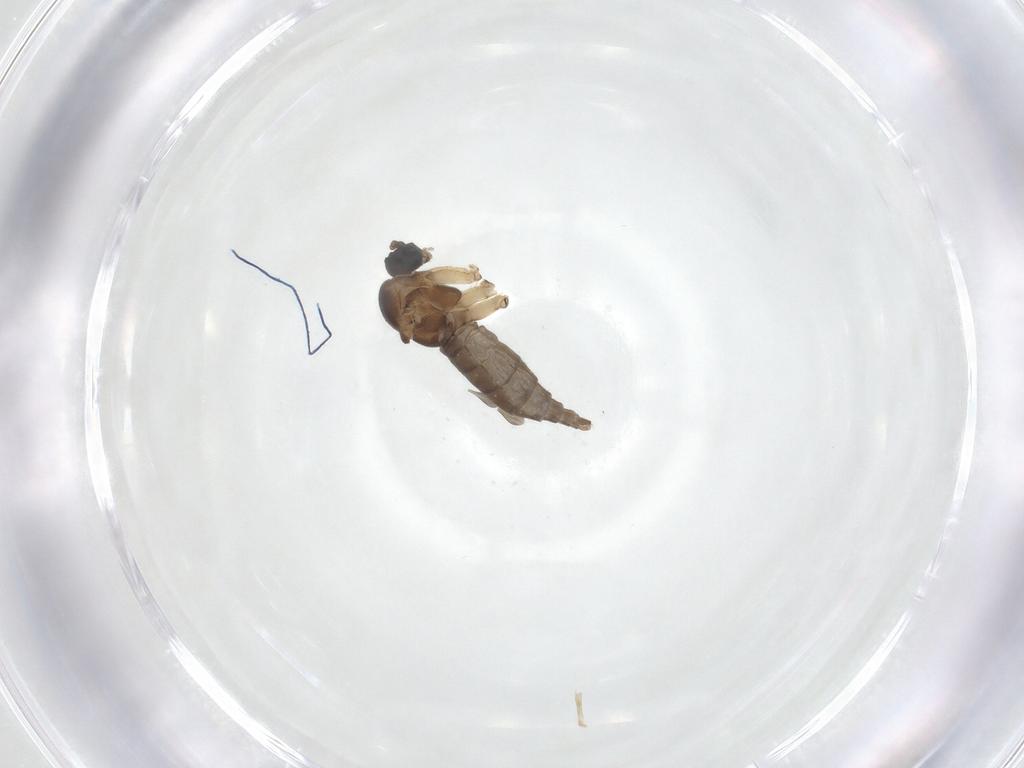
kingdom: Animalia
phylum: Arthropoda
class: Insecta
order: Diptera
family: Sciaridae
